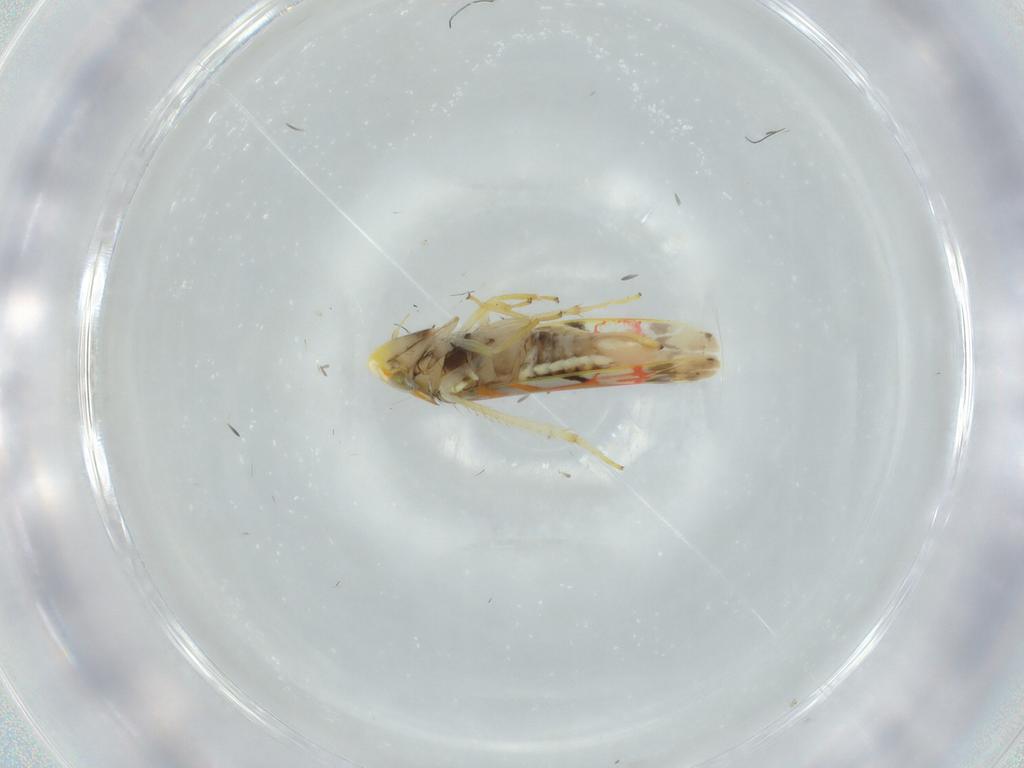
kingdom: Animalia
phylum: Arthropoda
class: Insecta
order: Hemiptera
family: Cicadellidae
